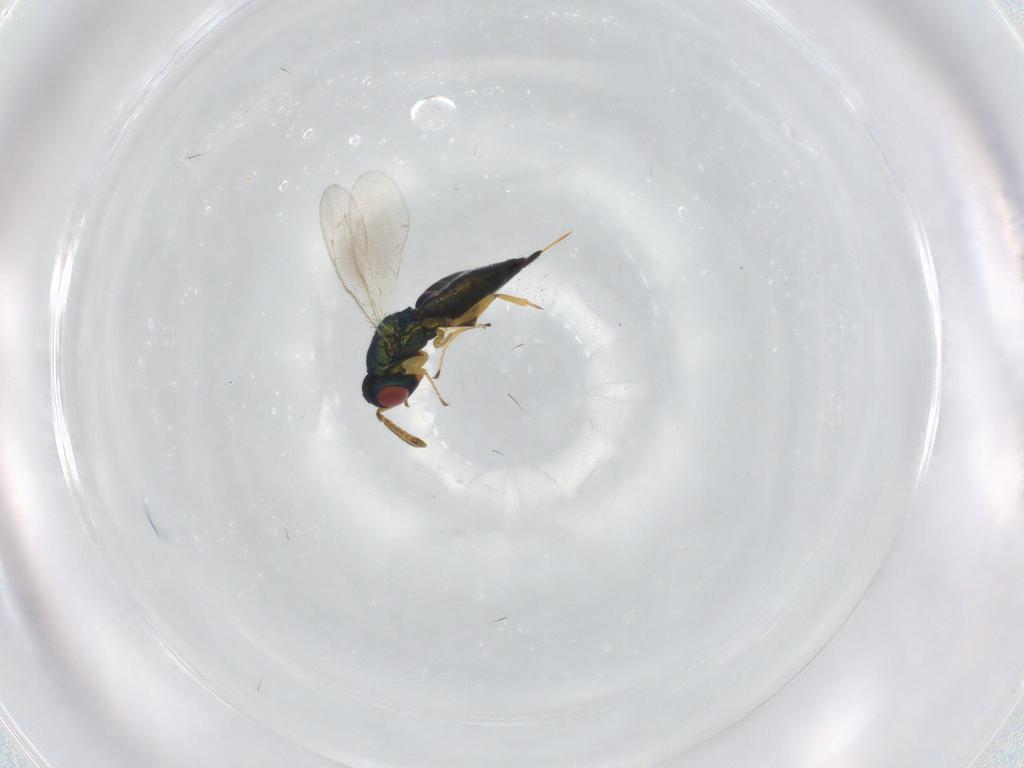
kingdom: Animalia
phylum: Arthropoda
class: Insecta
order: Hymenoptera
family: Pteromalidae
